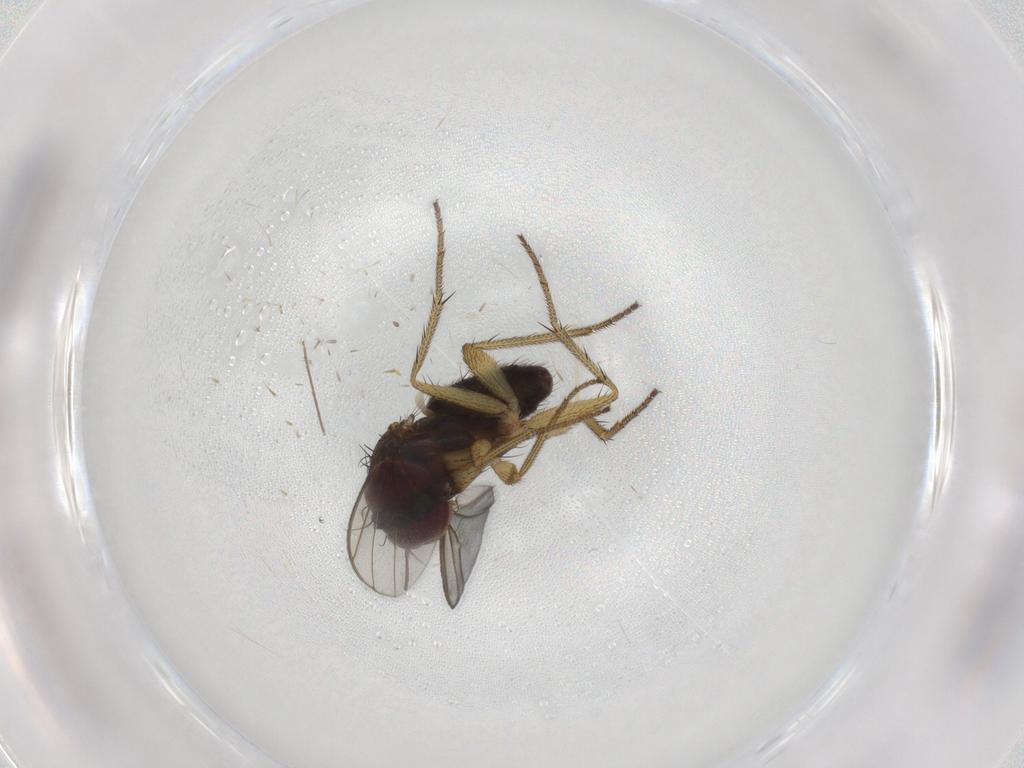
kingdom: Animalia
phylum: Arthropoda
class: Insecta
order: Diptera
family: Dolichopodidae
